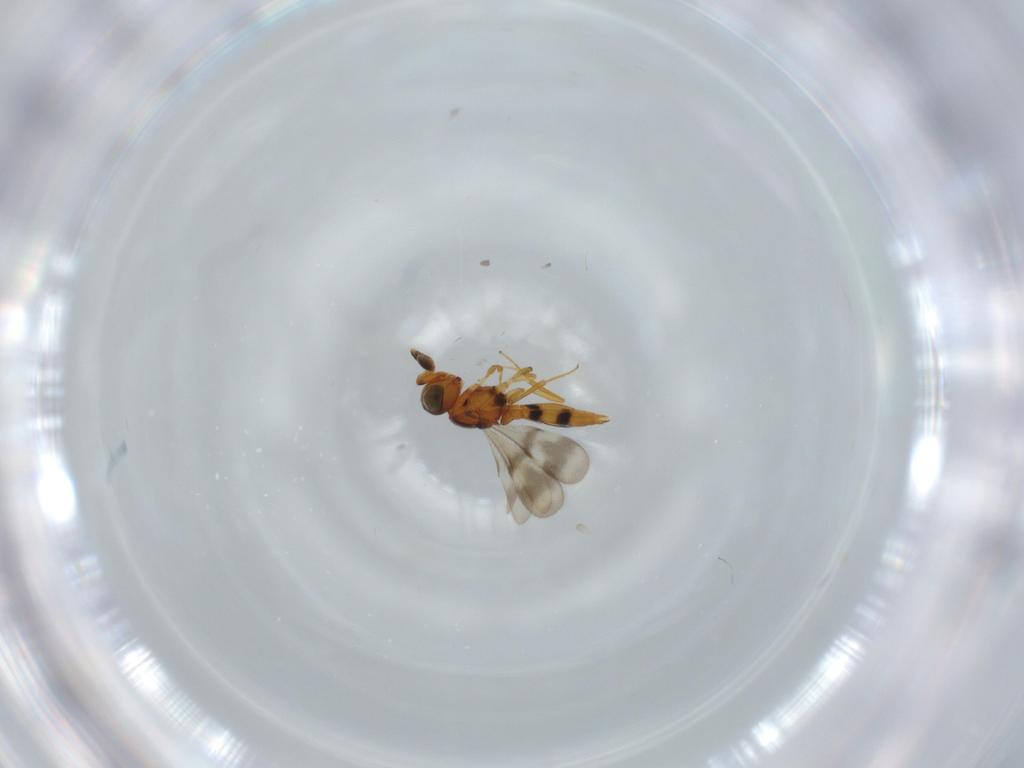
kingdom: Animalia
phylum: Arthropoda
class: Insecta
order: Hymenoptera
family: Scelionidae
